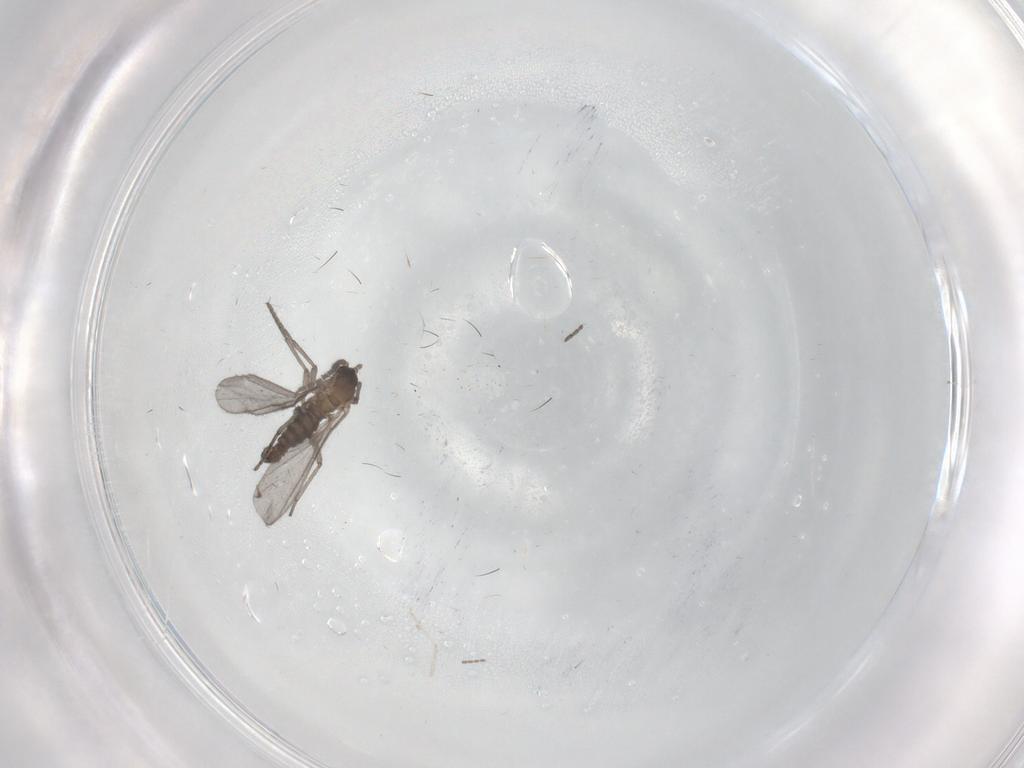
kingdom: Animalia
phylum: Arthropoda
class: Insecta
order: Diptera
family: Sciaridae
